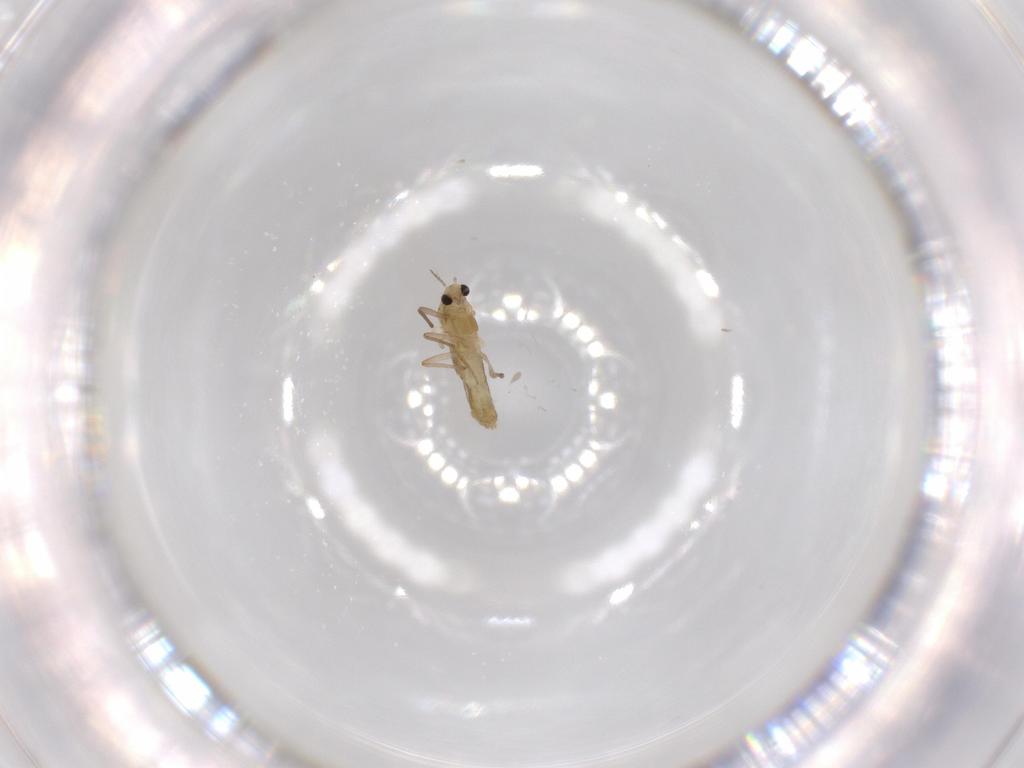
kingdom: Animalia
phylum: Arthropoda
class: Insecta
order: Diptera
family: Chironomidae
